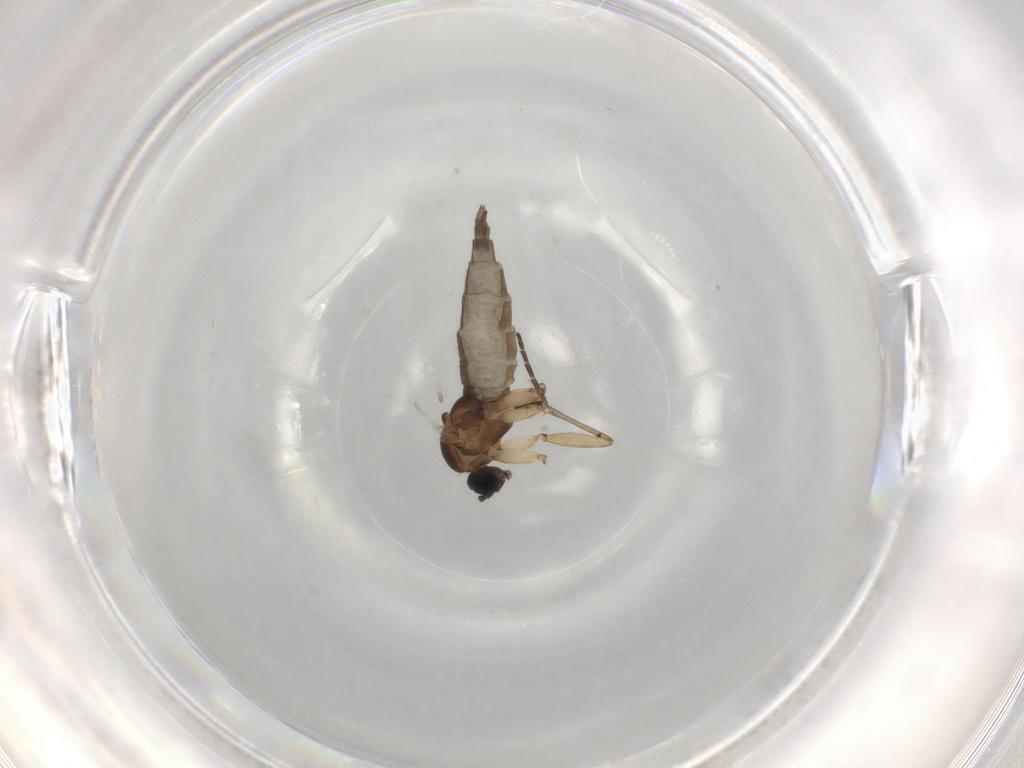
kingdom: Animalia
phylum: Arthropoda
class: Insecta
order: Diptera
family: Sciaridae
